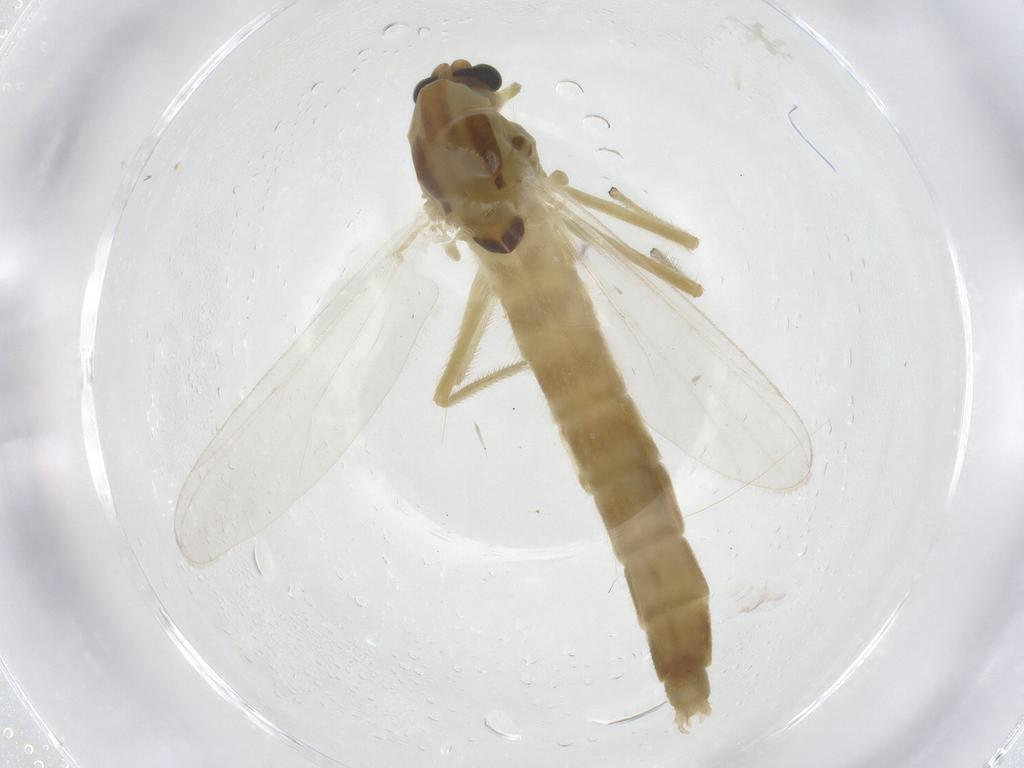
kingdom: Animalia
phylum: Arthropoda
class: Insecta
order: Diptera
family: Chironomidae
